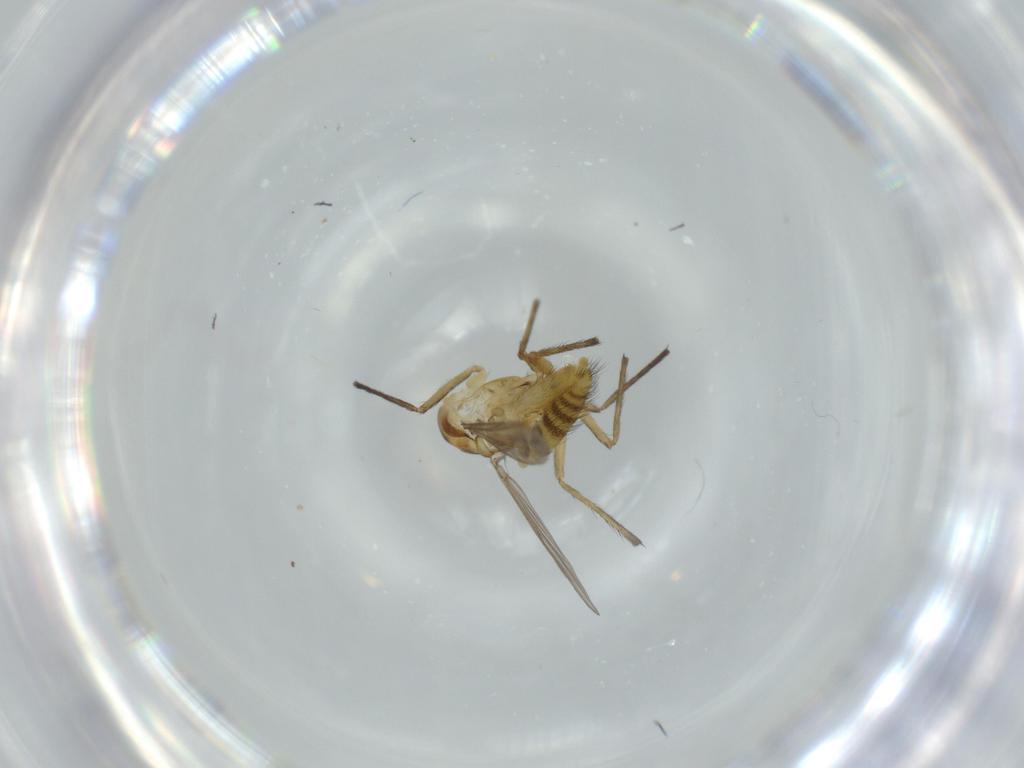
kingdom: Animalia
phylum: Arthropoda
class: Insecta
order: Diptera
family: Milichiidae
